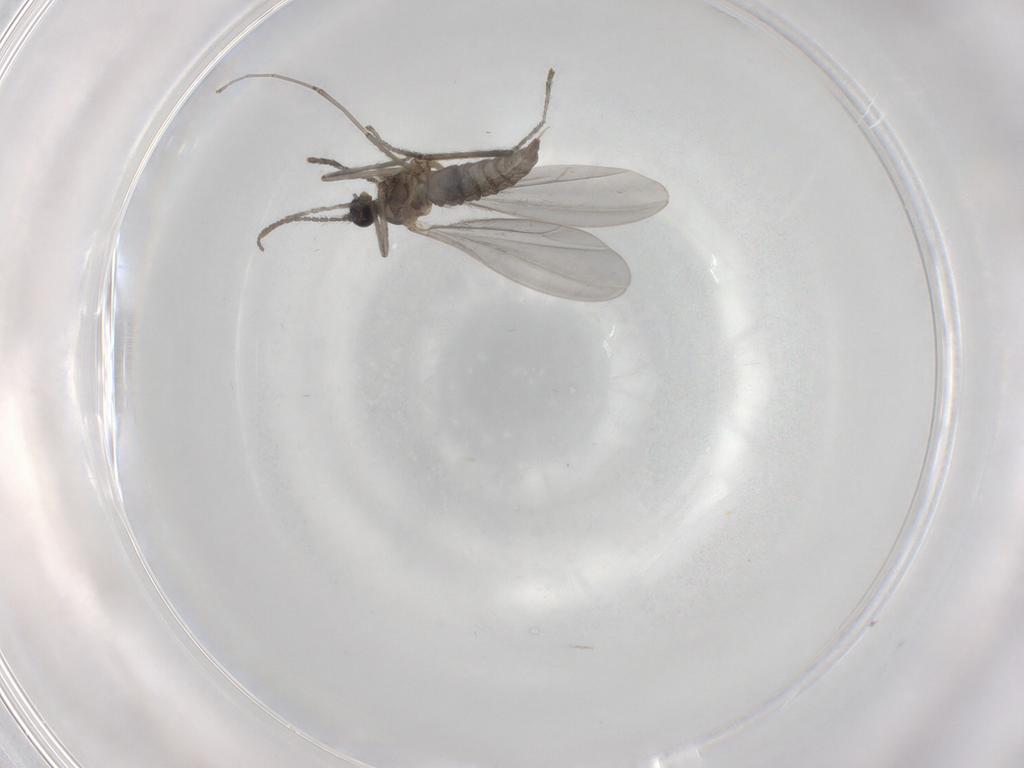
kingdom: Animalia
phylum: Arthropoda
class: Insecta
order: Diptera
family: Cecidomyiidae
